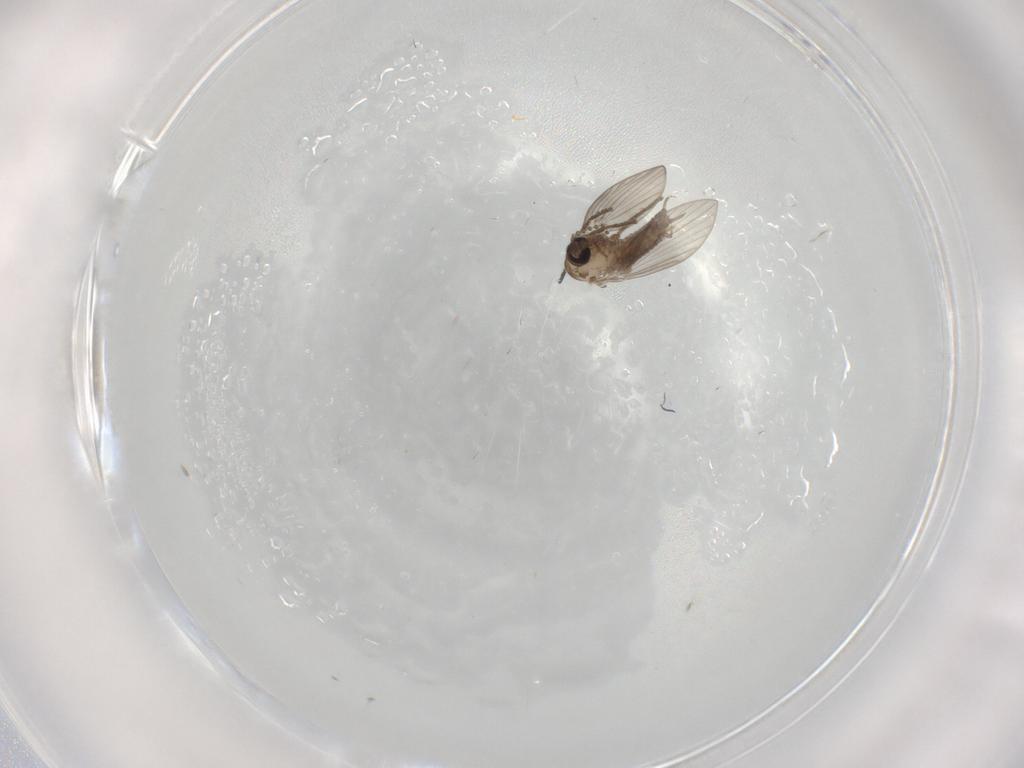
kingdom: Animalia
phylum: Arthropoda
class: Insecta
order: Diptera
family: Psychodidae
